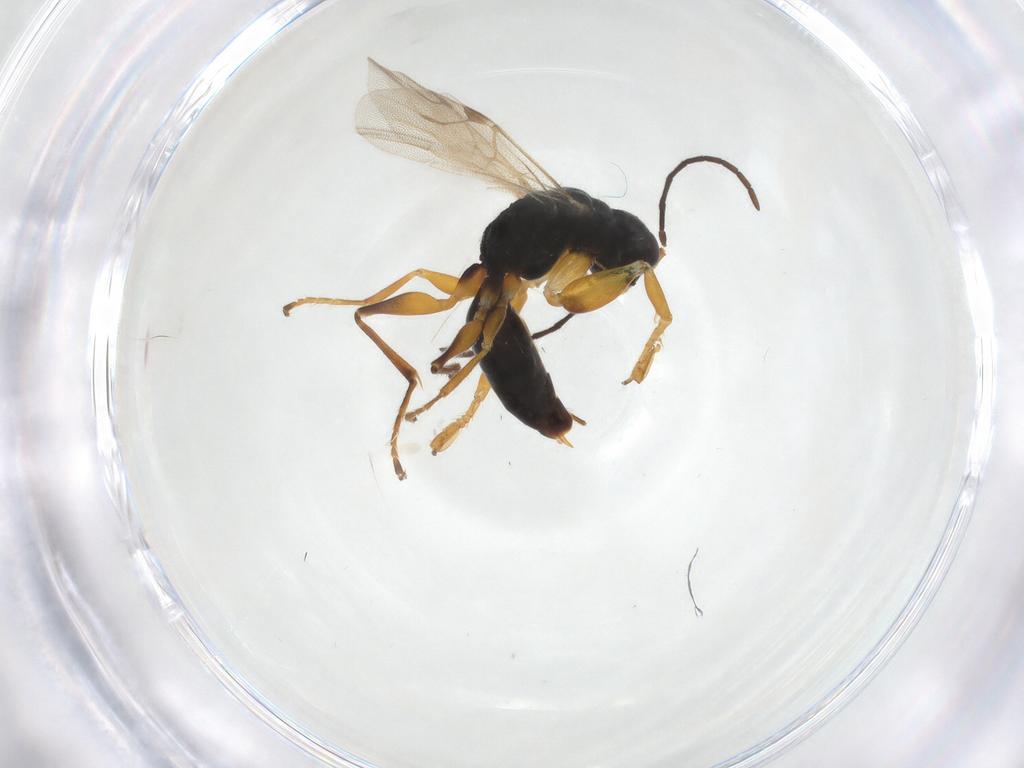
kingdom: Animalia
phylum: Arthropoda
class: Insecta
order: Hymenoptera
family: Dryinidae
